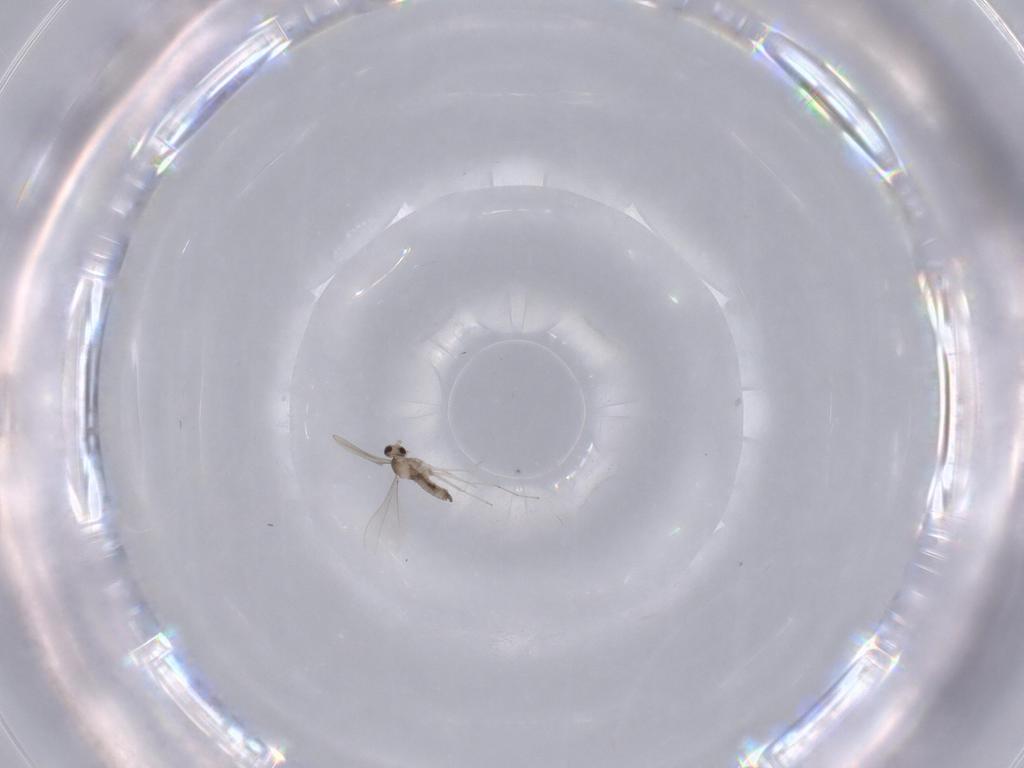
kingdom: Animalia
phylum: Arthropoda
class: Insecta
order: Diptera
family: Cecidomyiidae
